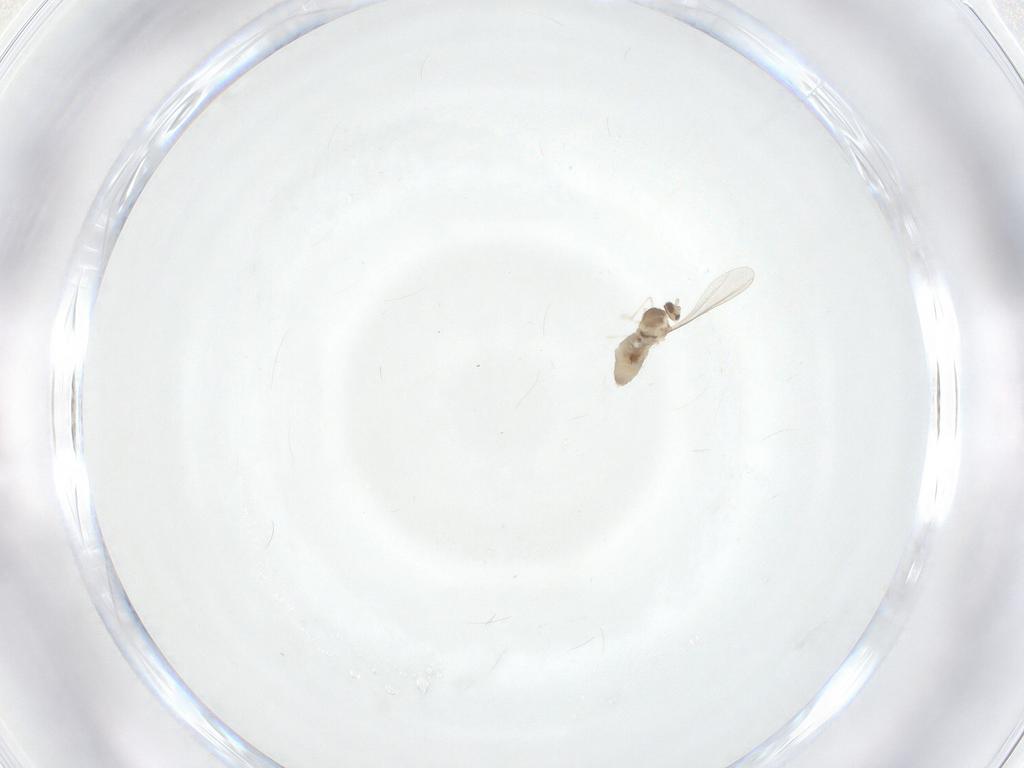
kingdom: Animalia
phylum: Arthropoda
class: Insecta
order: Diptera
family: Cecidomyiidae
